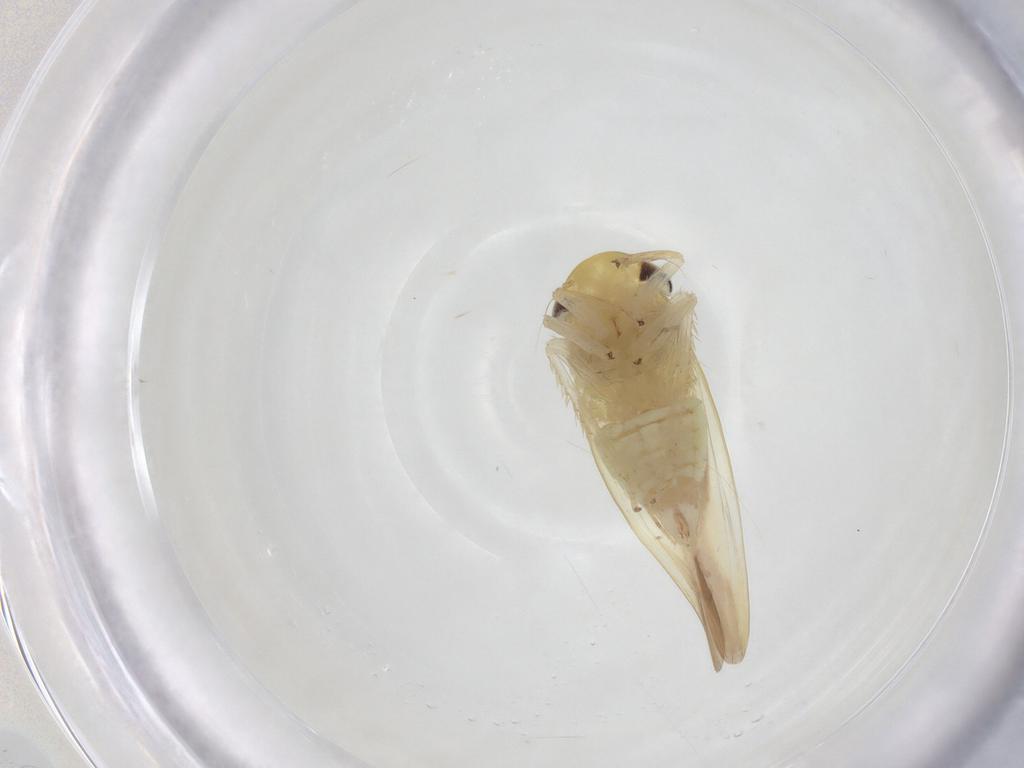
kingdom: Animalia
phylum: Arthropoda
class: Insecta
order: Hemiptera
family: Cicadellidae
